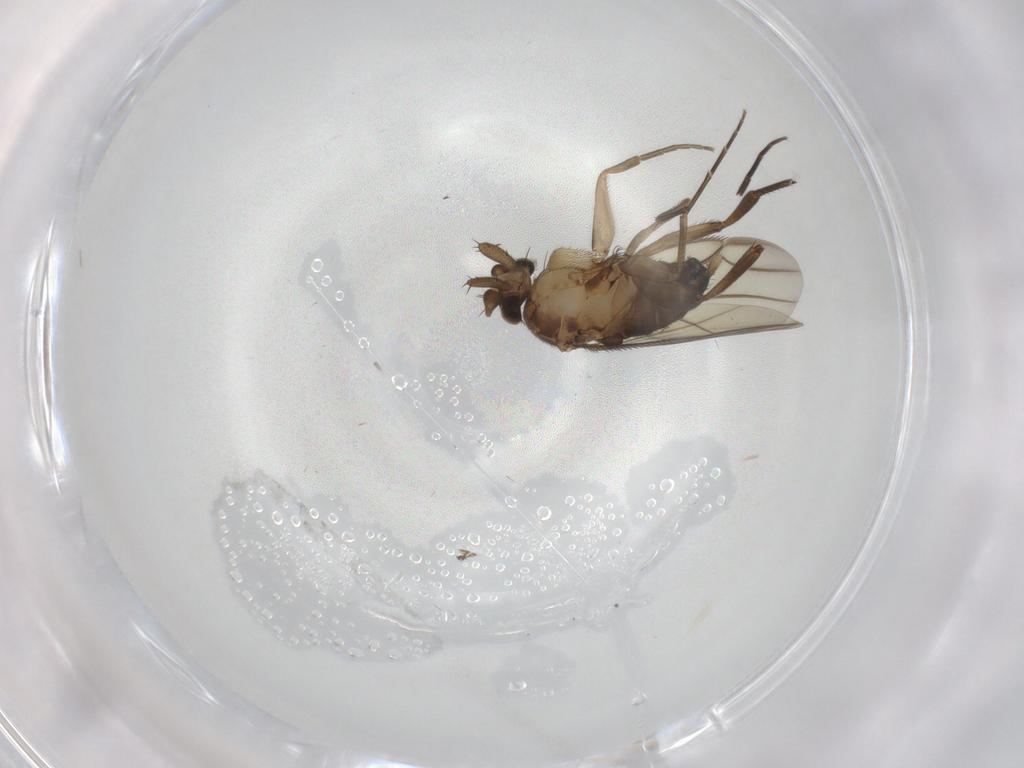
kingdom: Animalia
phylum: Arthropoda
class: Insecta
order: Diptera
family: Phoridae
